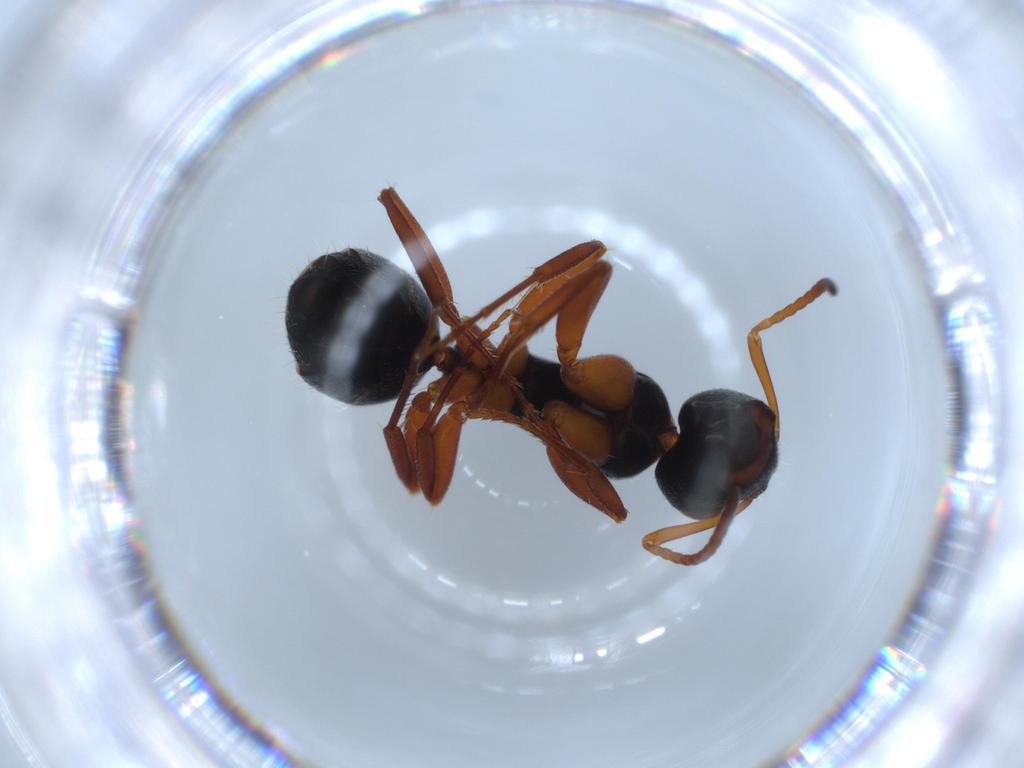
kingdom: Animalia
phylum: Arthropoda
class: Insecta
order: Hymenoptera
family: Formicidae
